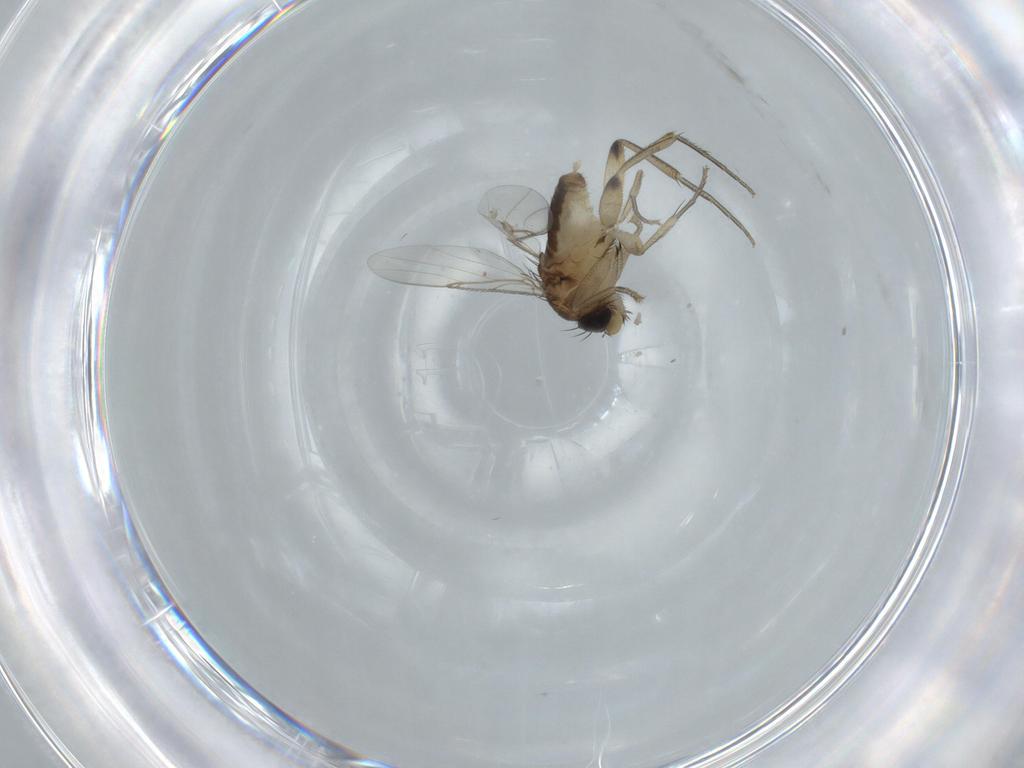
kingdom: Animalia
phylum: Arthropoda
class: Insecta
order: Diptera
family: Phoridae
